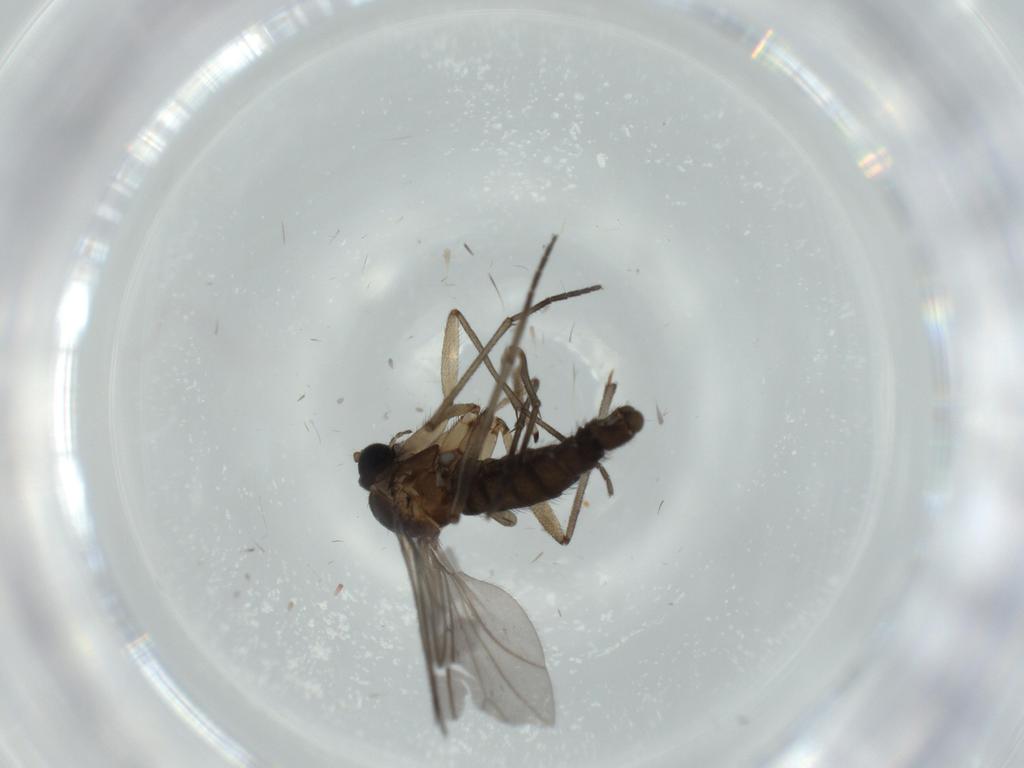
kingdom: Animalia
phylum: Arthropoda
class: Insecta
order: Diptera
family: Sciaridae
